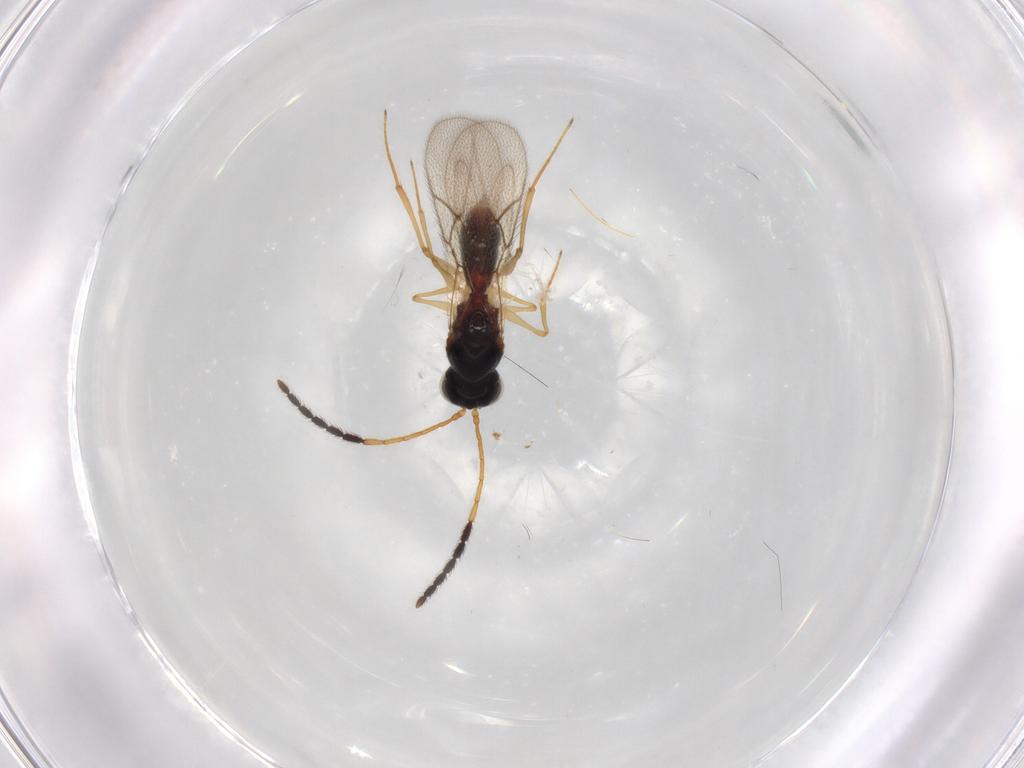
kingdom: Animalia
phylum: Arthropoda
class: Insecta
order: Hymenoptera
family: Figitidae
